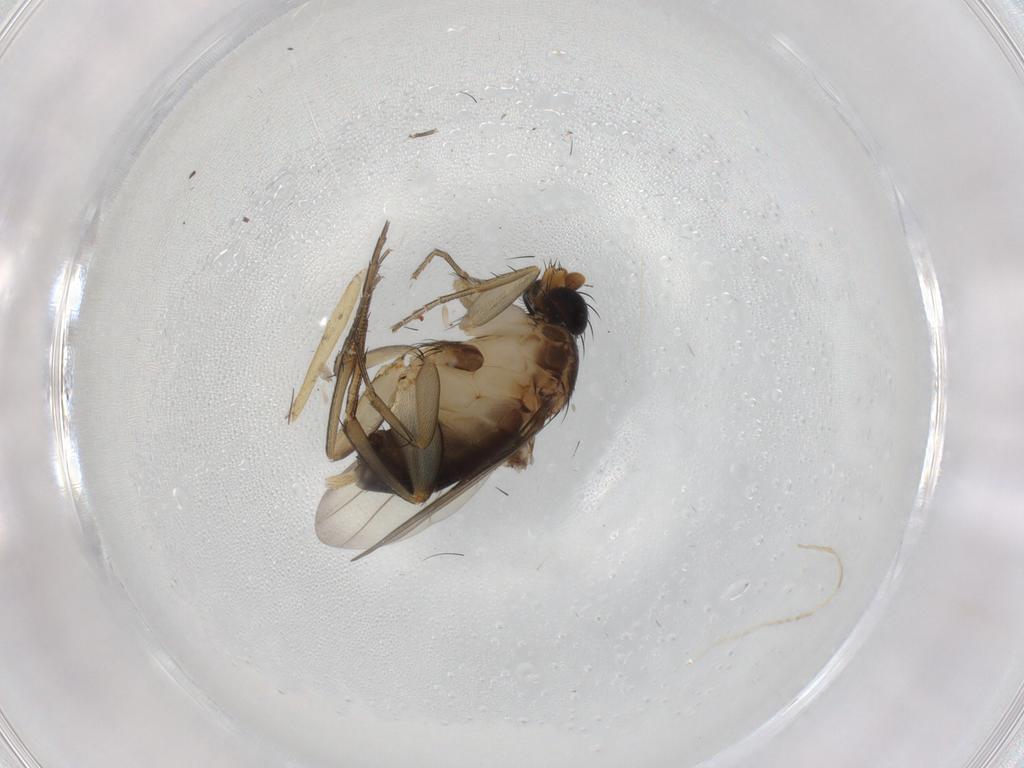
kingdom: Animalia
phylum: Arthropoda
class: Insecta
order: Diptera
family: Phoridae
